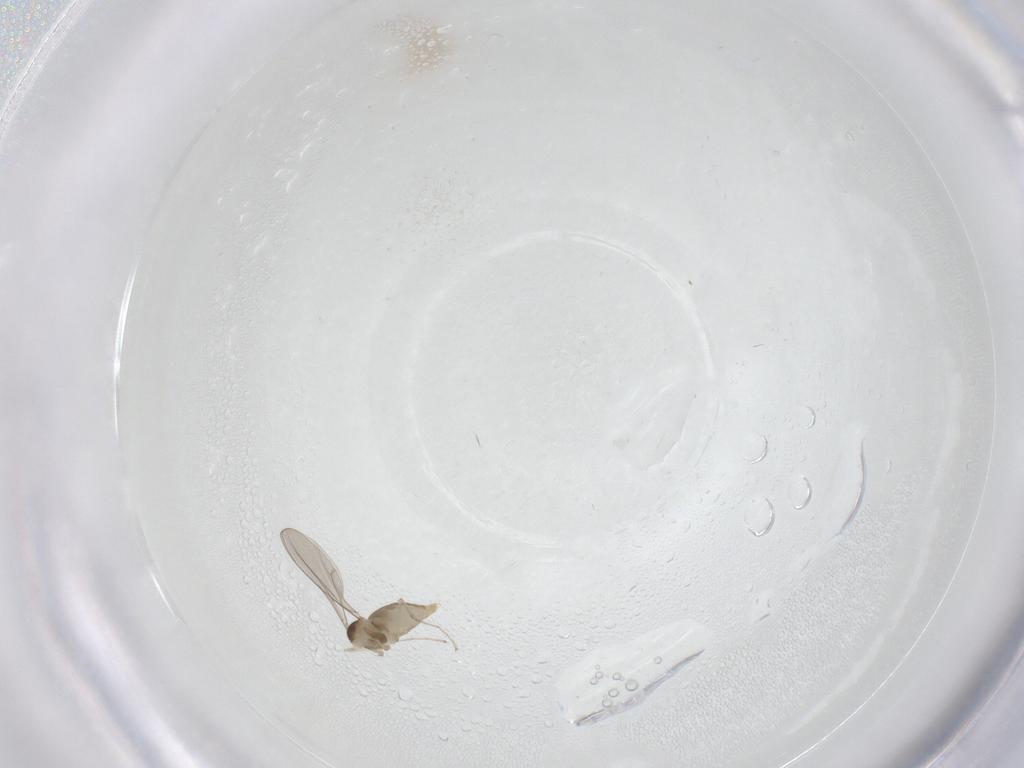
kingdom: Animalia
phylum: Arthropoda
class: Insecta
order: Diptera
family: Cecidomyiidae
